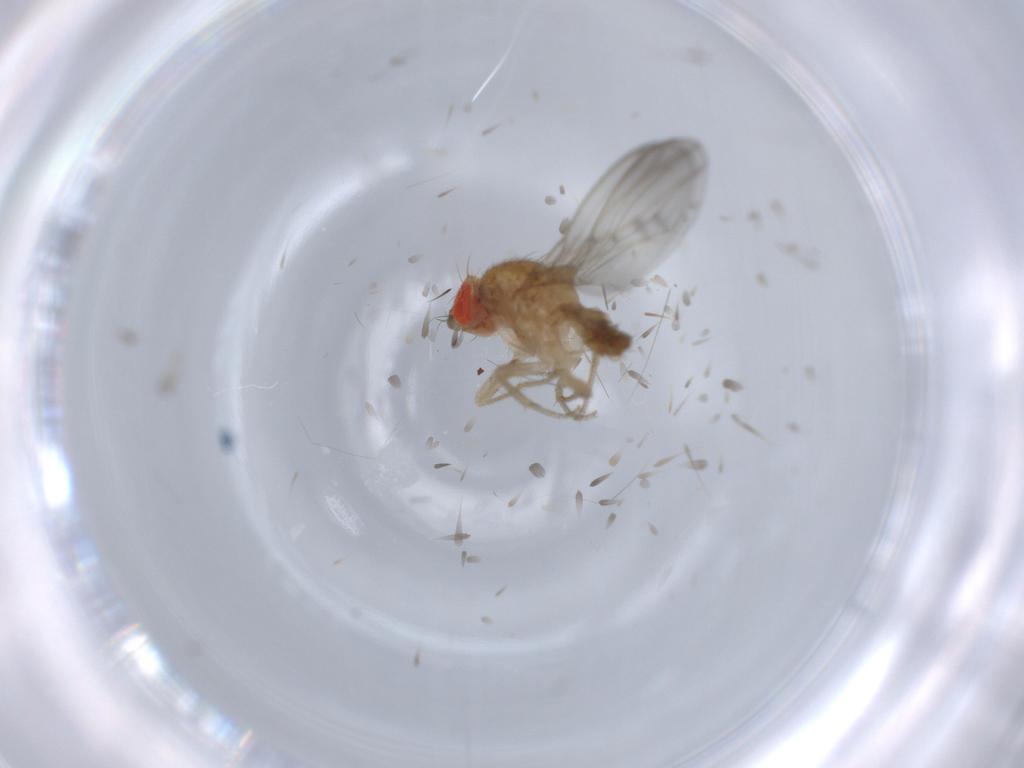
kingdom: Animalia
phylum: Arthropoda
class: Insecta
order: Diptera
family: Drosophilidae
